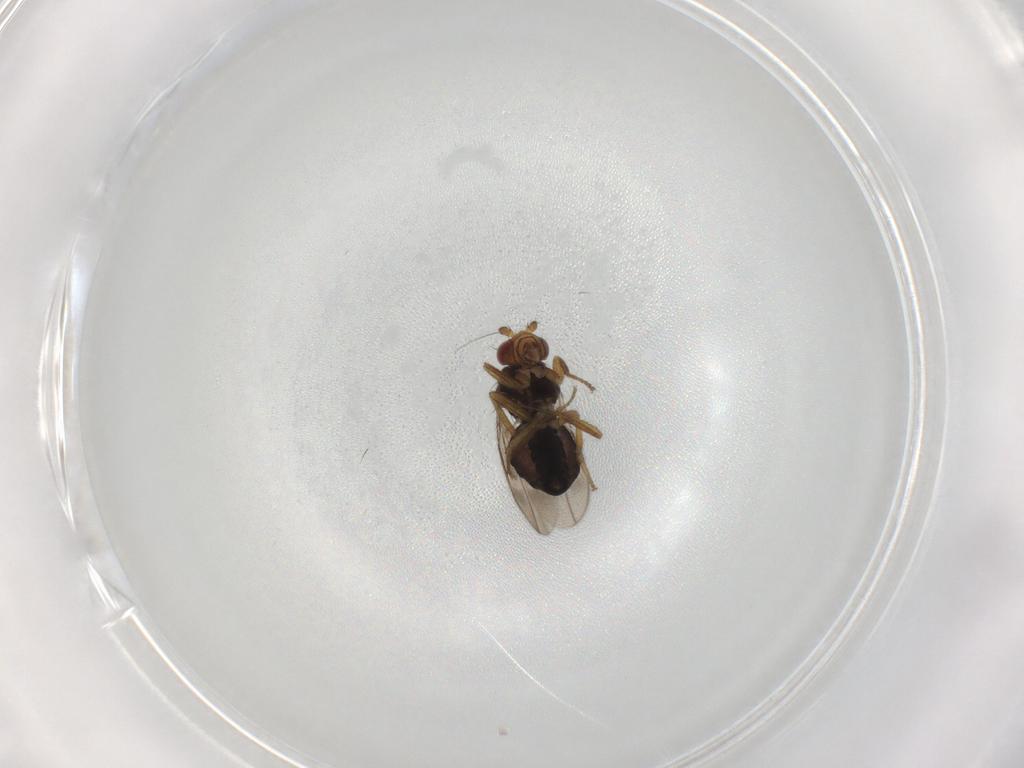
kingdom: Animalia
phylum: Arthropoda
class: Insecta
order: Diptera
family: Sphaeroceridae
